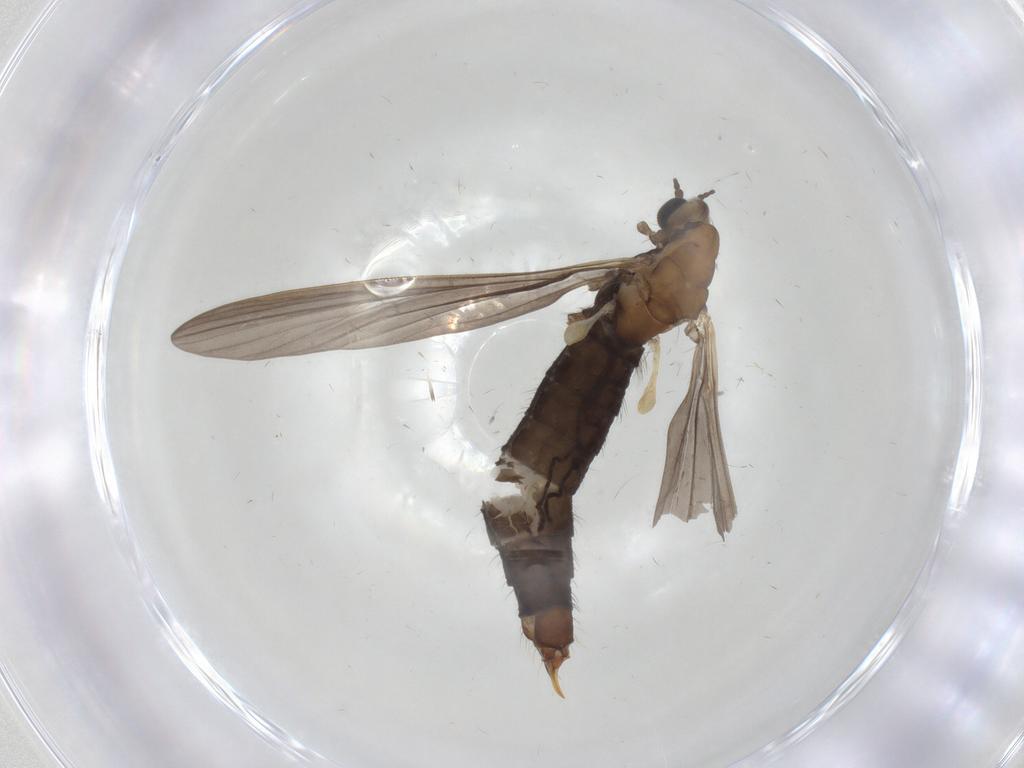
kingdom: Animalia
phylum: Arthropoda
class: Insecta
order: Diptera
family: Limoniidae
